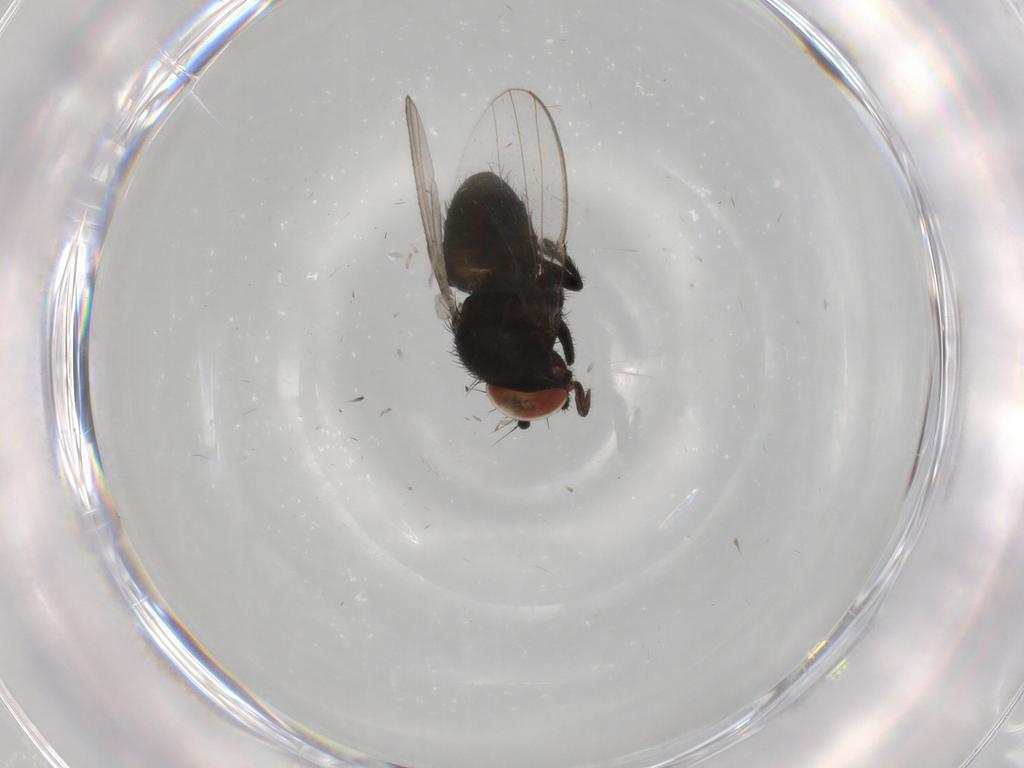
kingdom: Animalia
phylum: Arthropoda
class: Insecta
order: Diptera
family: Milichiidae
